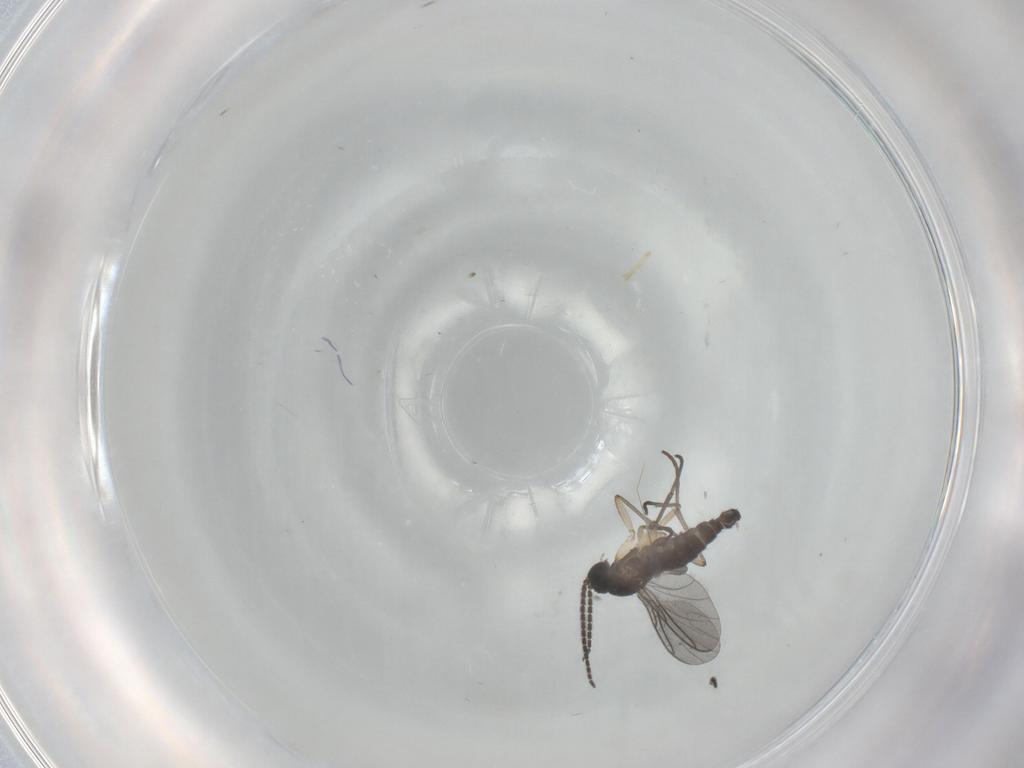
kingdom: Animalia
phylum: Arthropoda
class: Insecta
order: Diptera
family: Sciaridae
